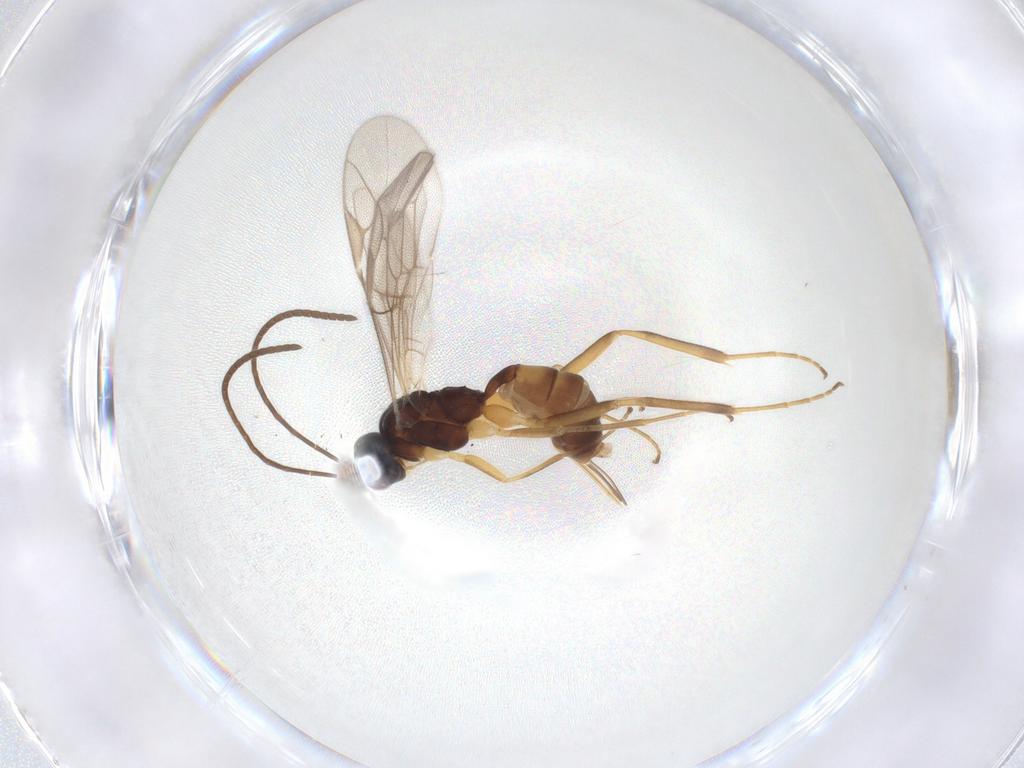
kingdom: Animalia
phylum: Arthropoda
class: Insecta
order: Hymenoptera
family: Ichneumonidae
